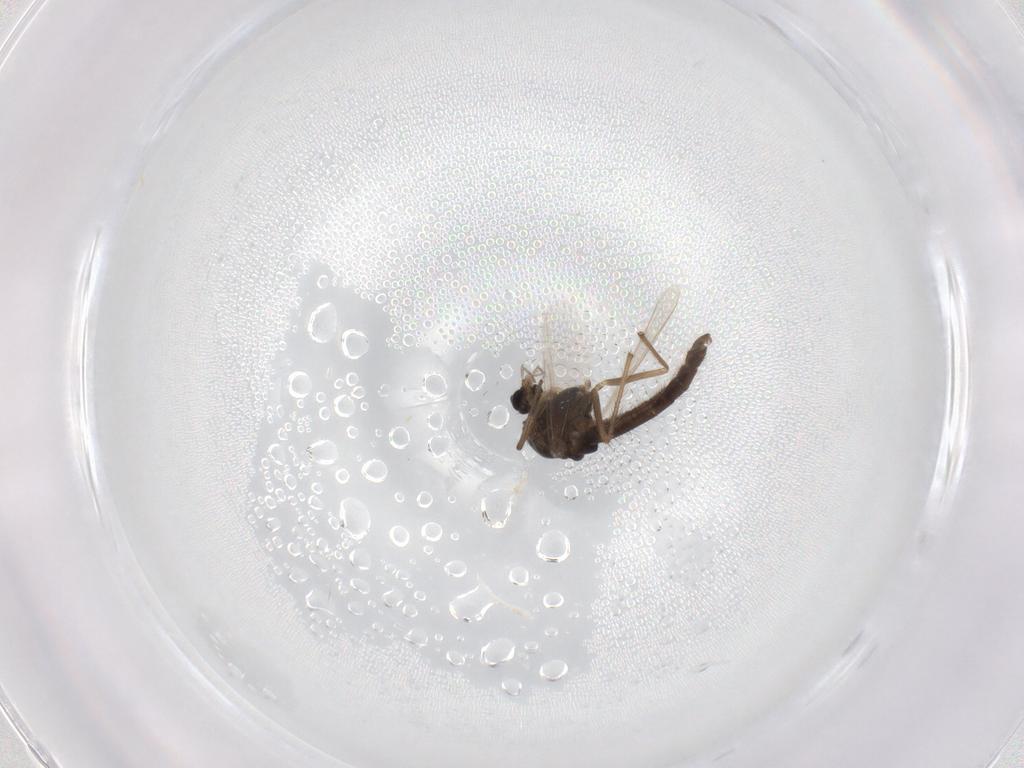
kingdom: Animalia
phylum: Arthropoda
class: Insecta
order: Diptera
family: Chironomidae
